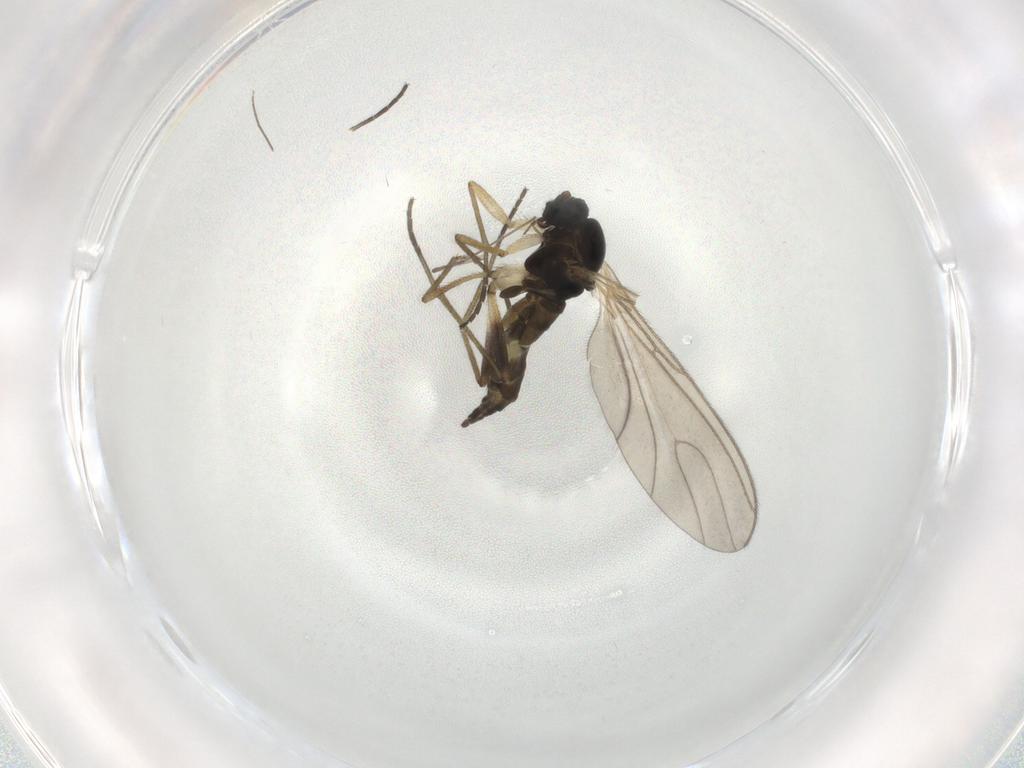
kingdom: Animalia
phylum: Arthropoda
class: Insecta
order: Diptera
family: Sciaridae
